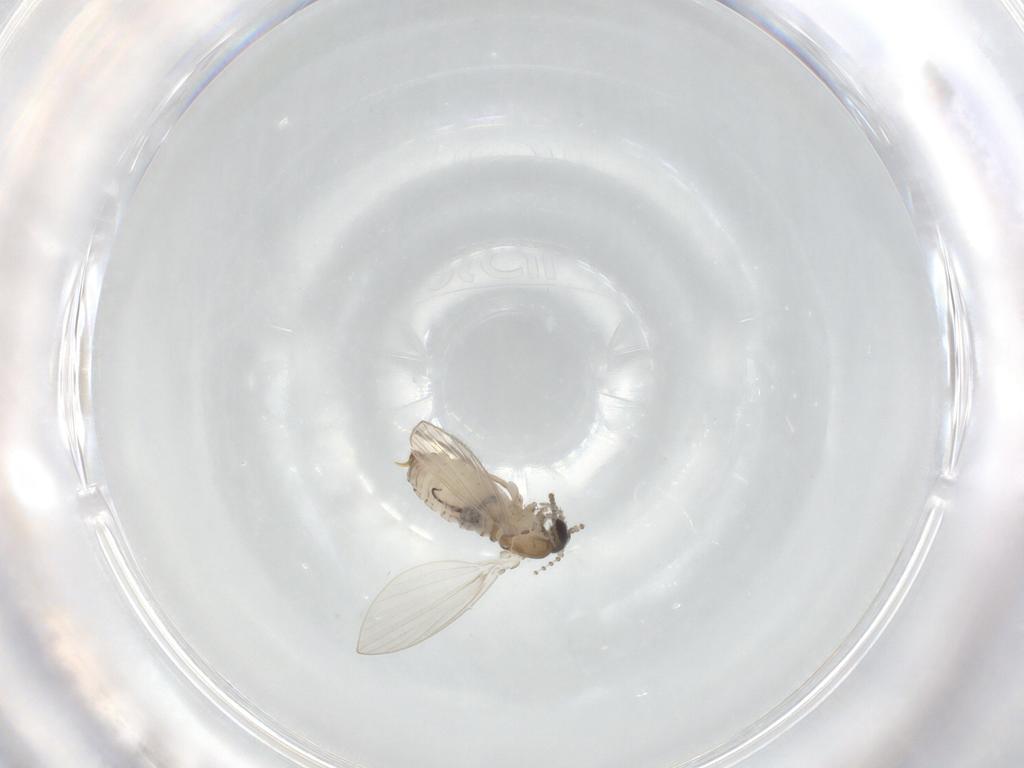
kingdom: Animalia
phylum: Arthropoda
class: Insecta
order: Diptera
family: Psychodidae
